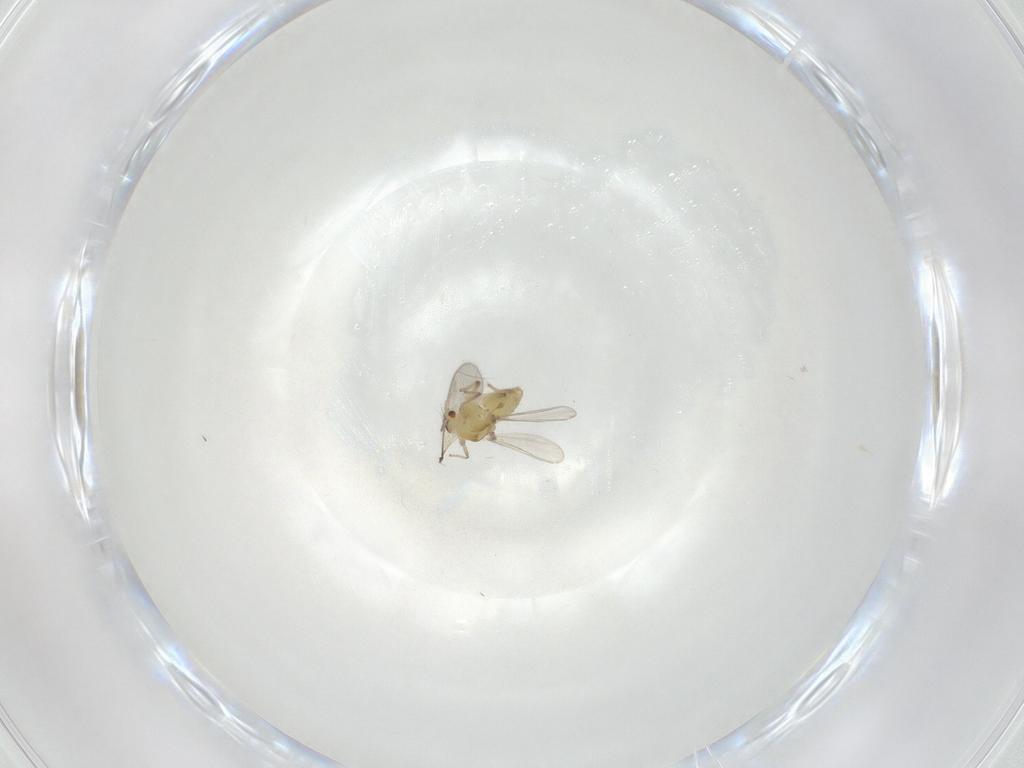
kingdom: Animalia
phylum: Arthropoda
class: Insecta
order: Diptera
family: Chironomidae
